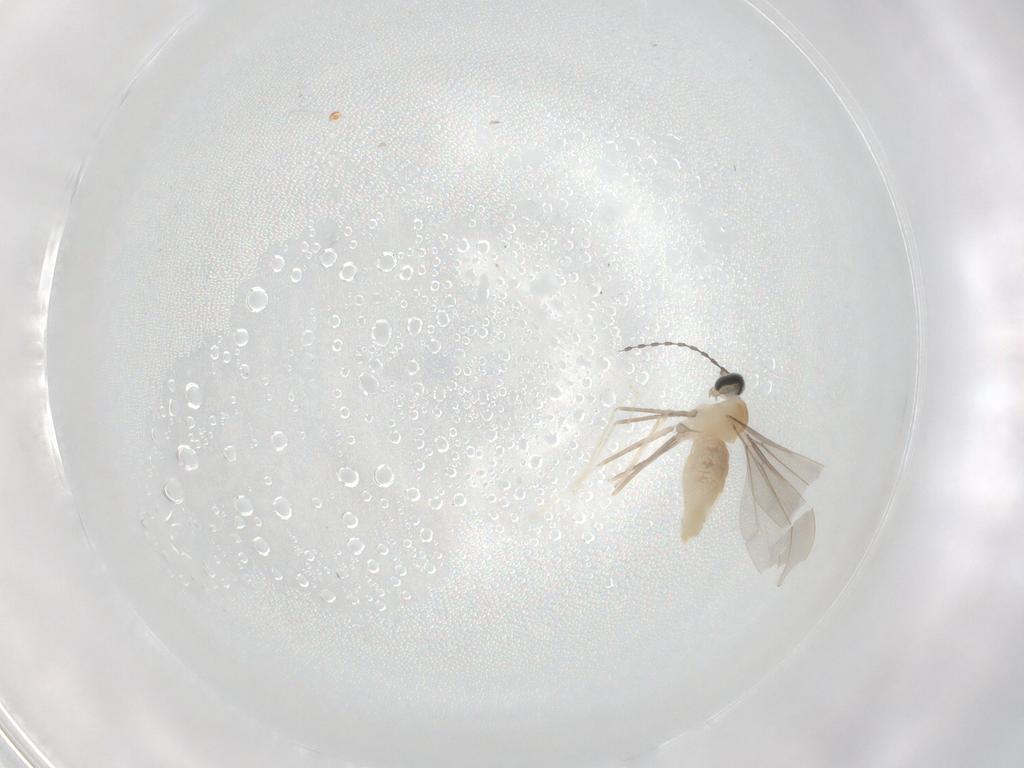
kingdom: Animalia
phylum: Arthropoda
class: Insecta
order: Diptera
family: Cecidomyiidae
